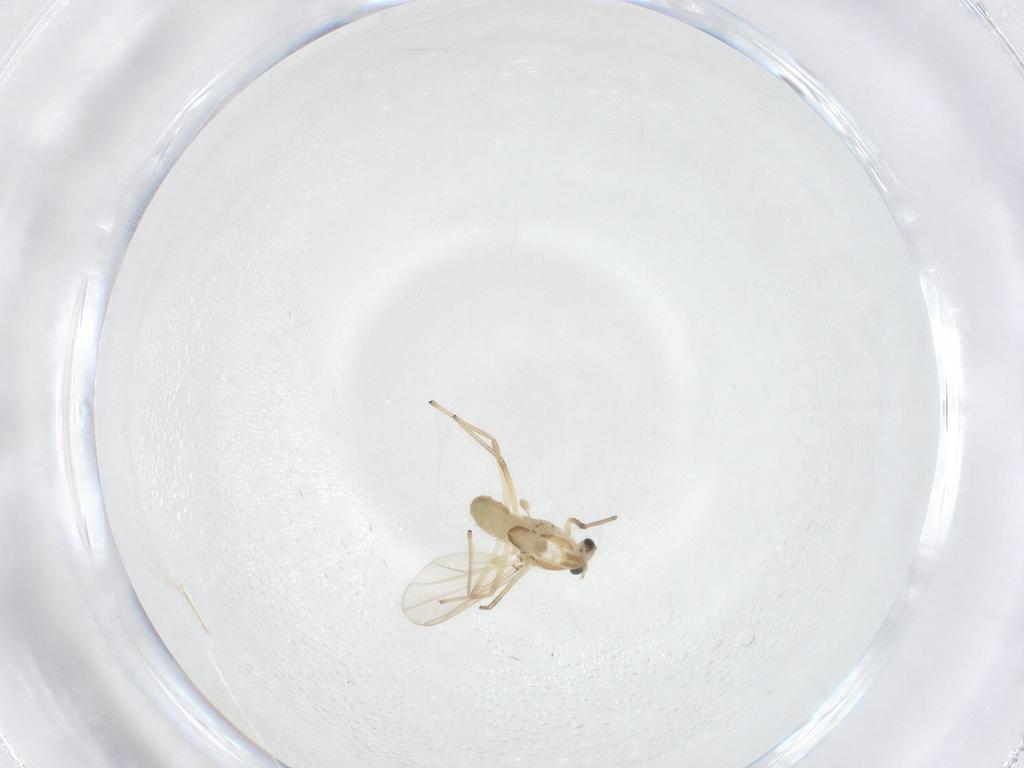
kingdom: Animalia
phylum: Arthropoda
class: Insecta
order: Diptera
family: Chironomidae
